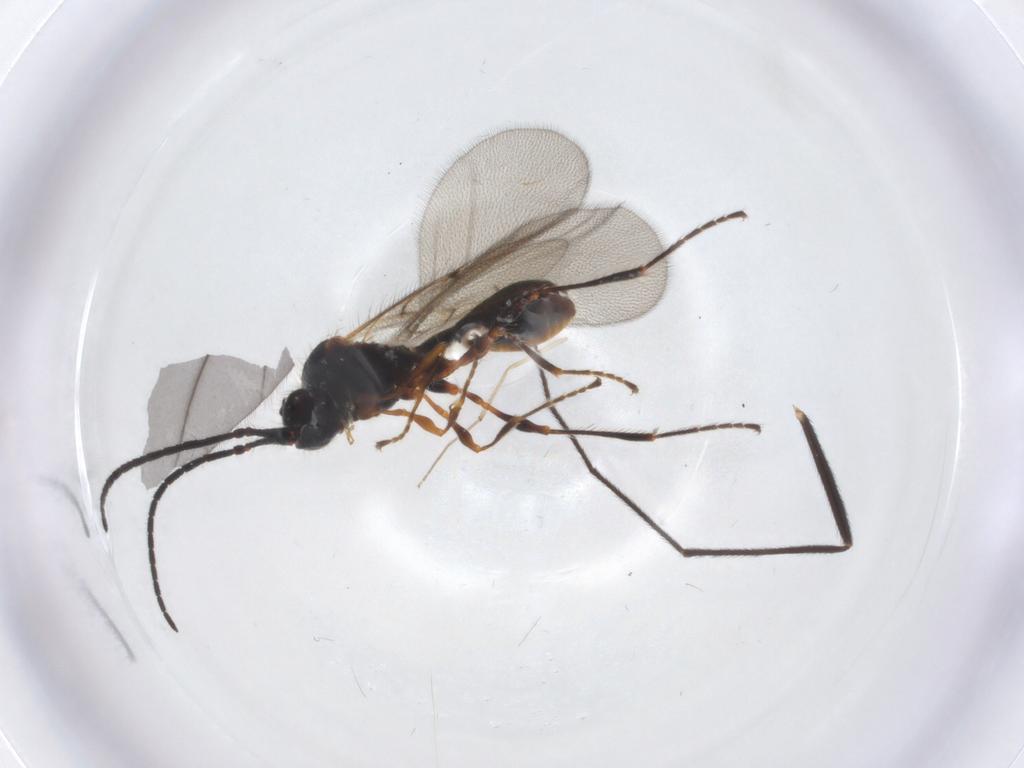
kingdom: Animalia
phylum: Arthropoda
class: Insecta
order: Hymenoptera
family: Diapriidae
